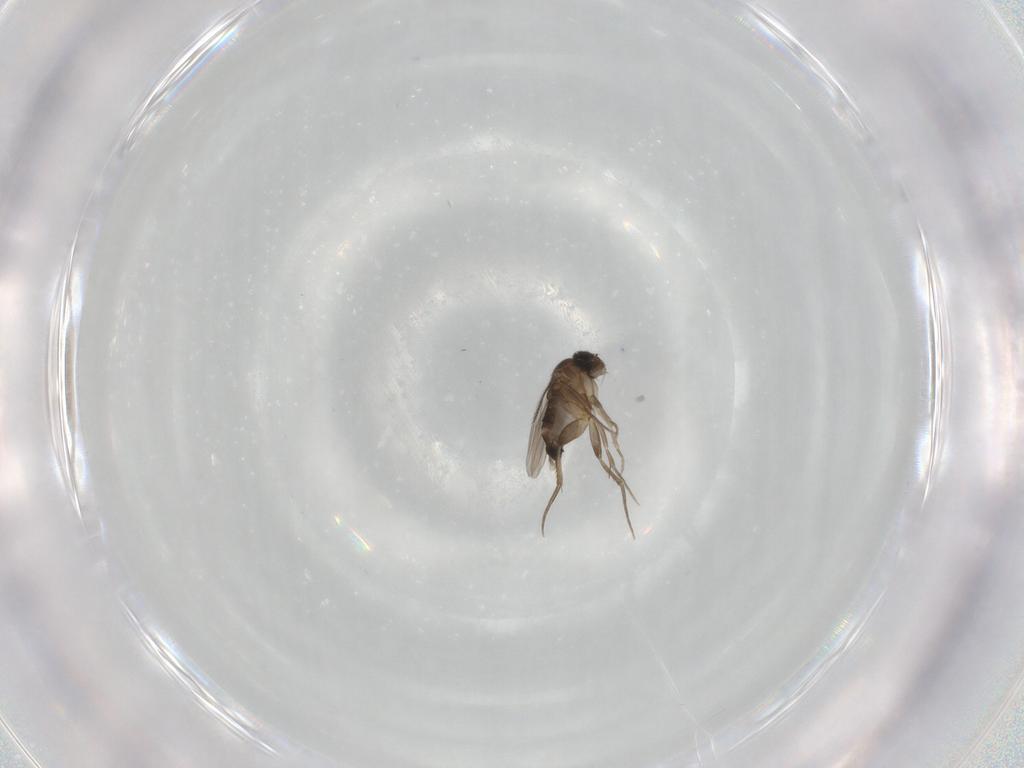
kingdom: Animalia
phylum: Arthropoda
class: Insecta
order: Diptera
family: Phoridae
